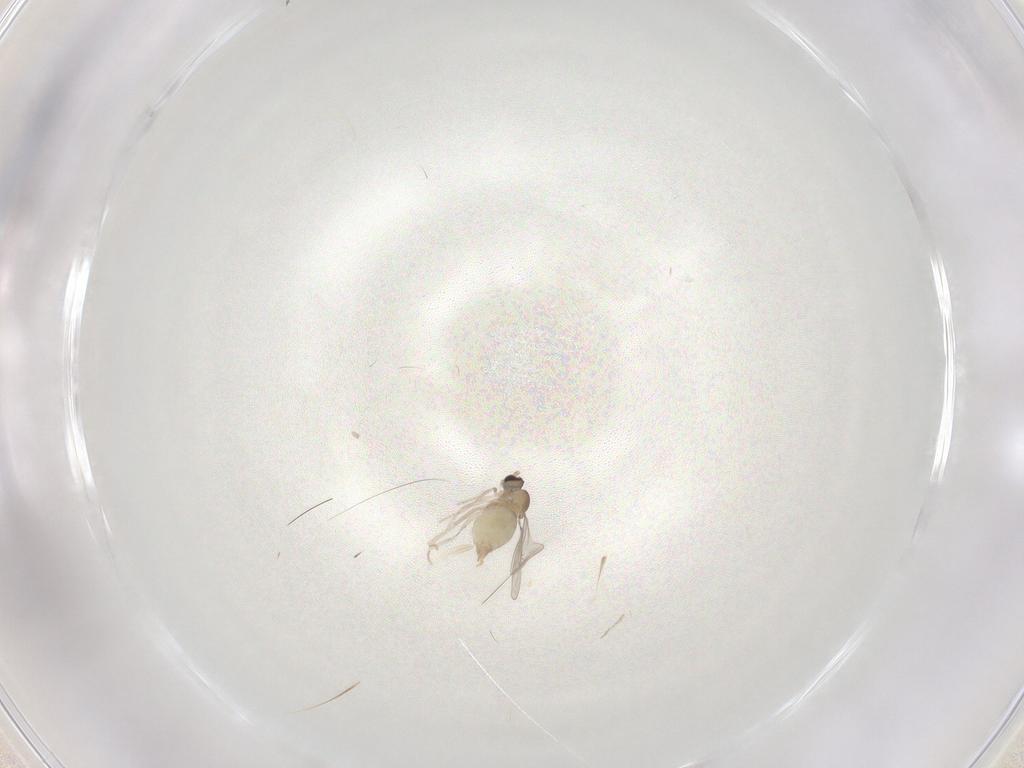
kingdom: Animalia
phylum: Arthropoda
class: Insecta
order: Diptera
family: Cecidomyiidae
